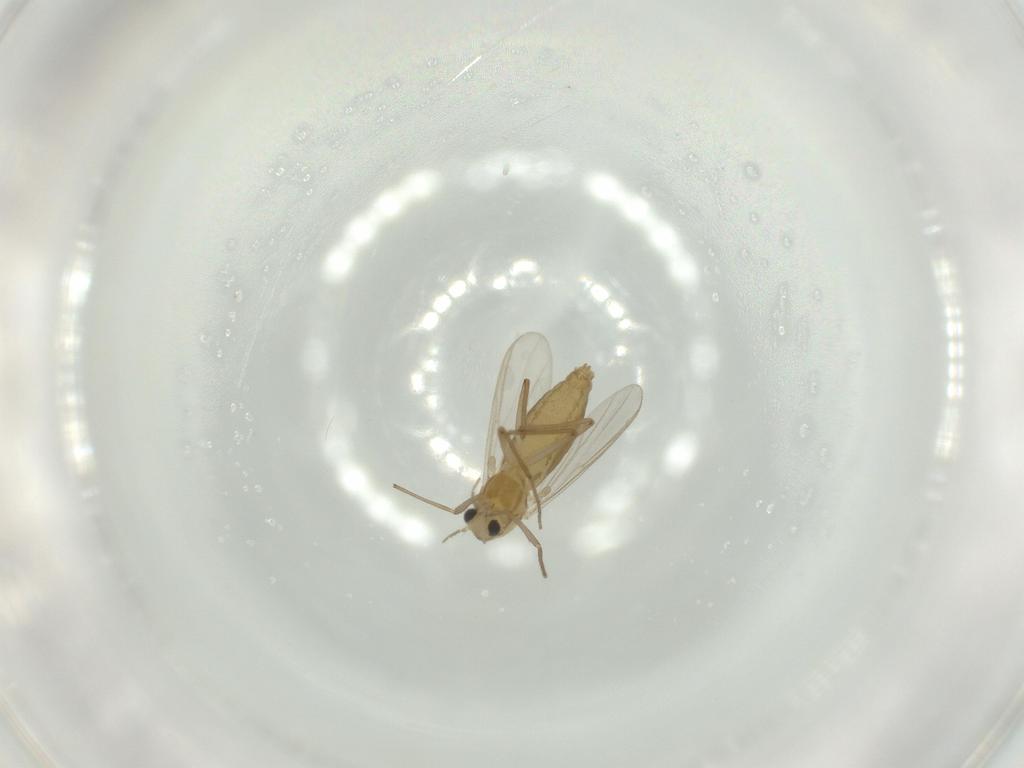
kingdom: Animalia
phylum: Arthropoda
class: Insecta
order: Diptera
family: Chironomidae
